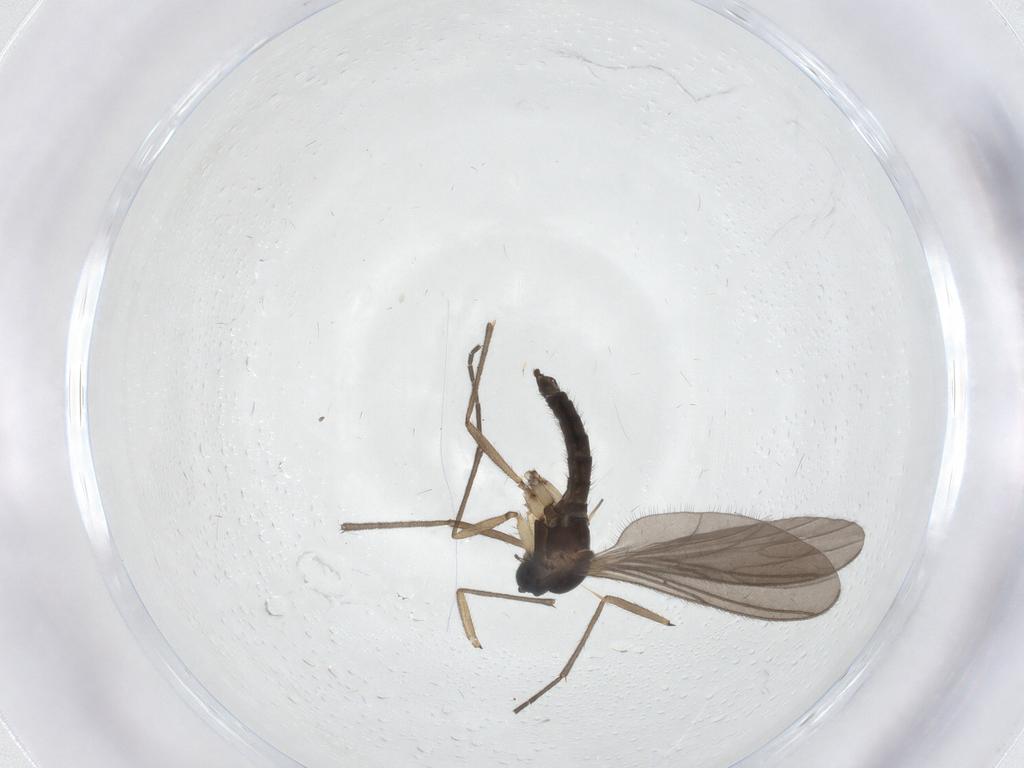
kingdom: Animalia
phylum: Arthropoda
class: Insecta
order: Diptera
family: Sciaridae
